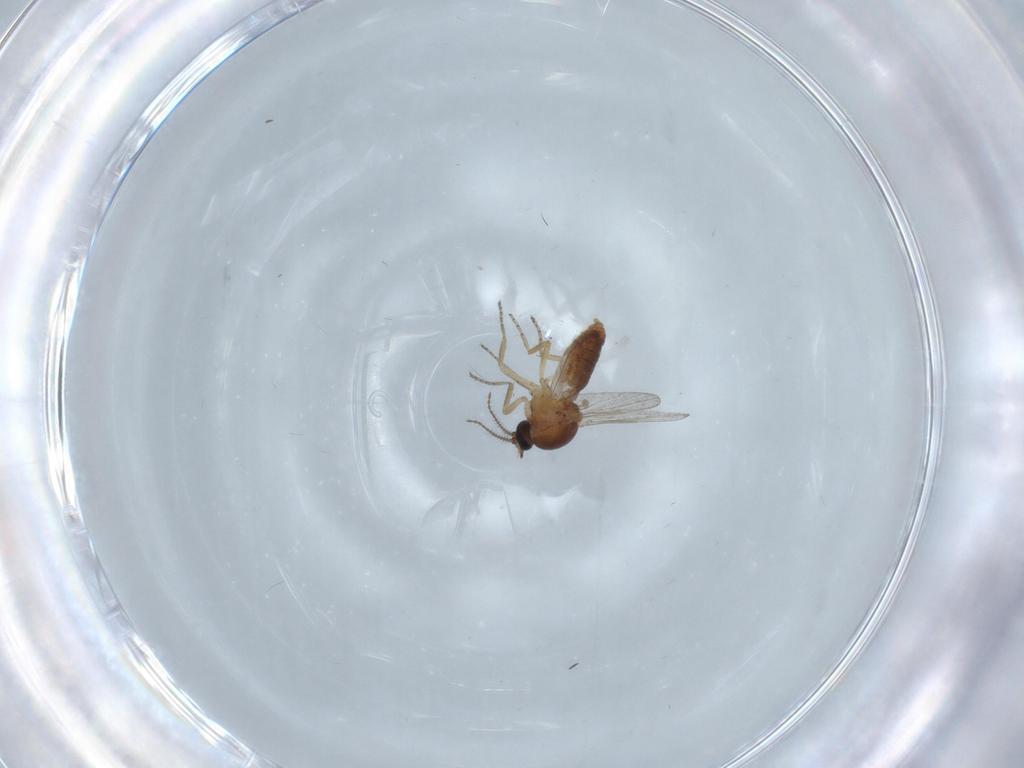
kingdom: Animalia
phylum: Arthropoda
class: Insecta
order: Diptera
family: Ceratopogonidae
